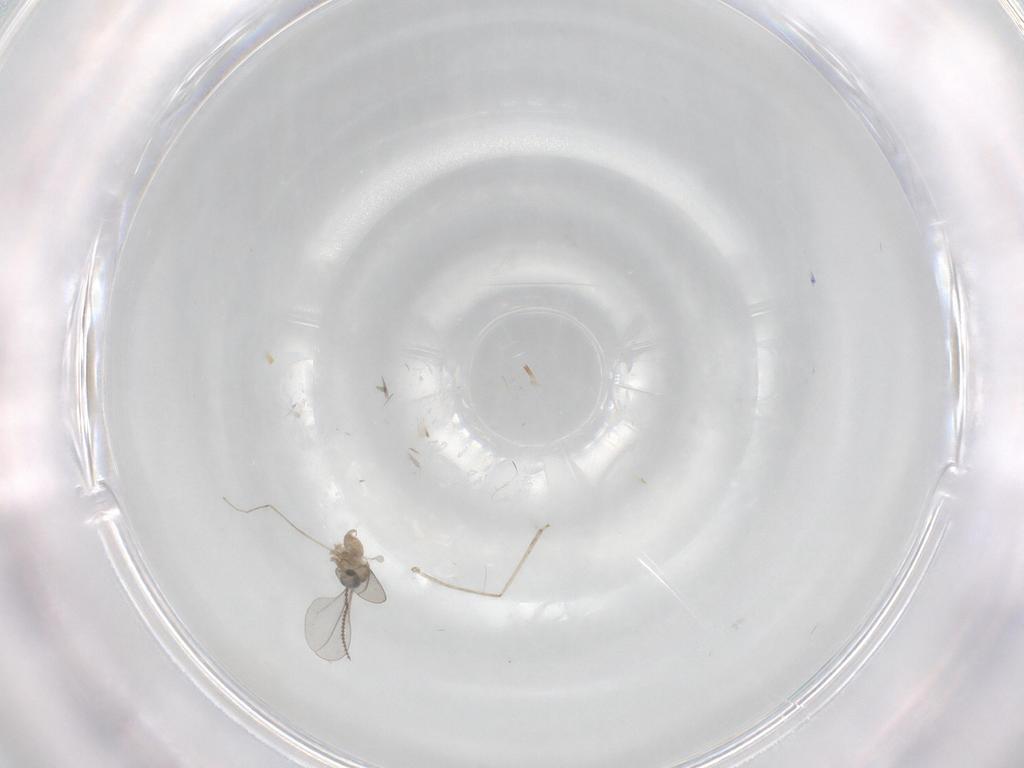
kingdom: Animalia
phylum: Arthropoda
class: Insecta
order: Diptera
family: Cecidomyiidae
